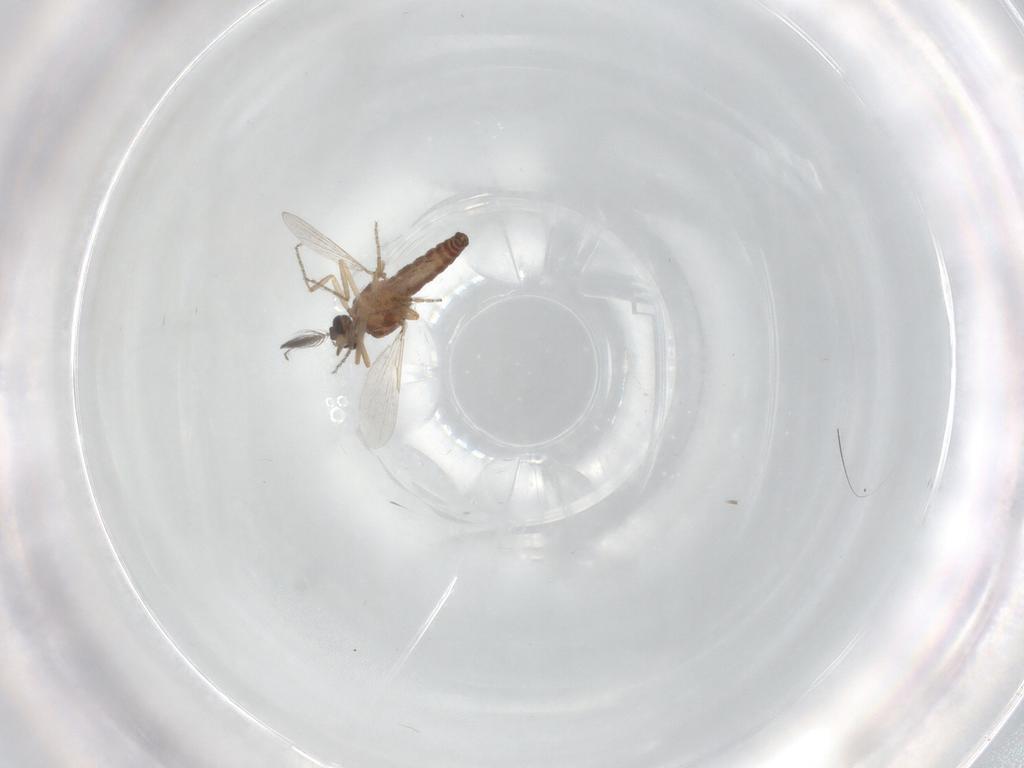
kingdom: Animalia
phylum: Arthropoda
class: Insecta
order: Diptera
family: Ceratopogonidae
